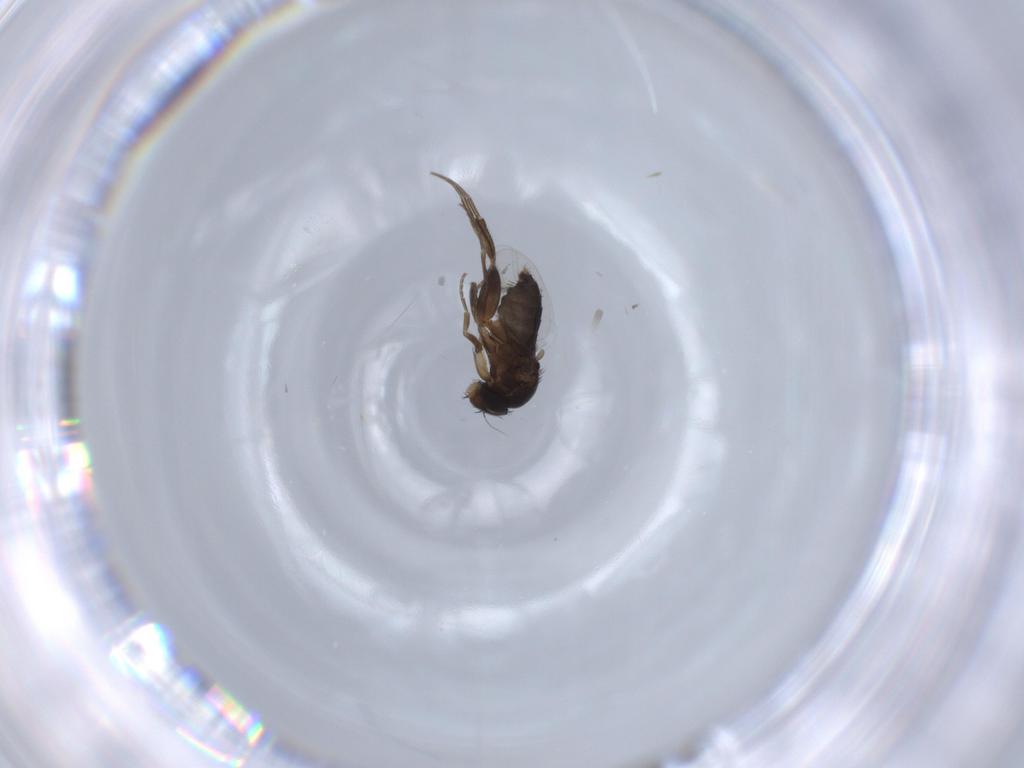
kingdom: Animalia
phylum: Arthropoda
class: Insecta
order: Diptera
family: Phoridae
